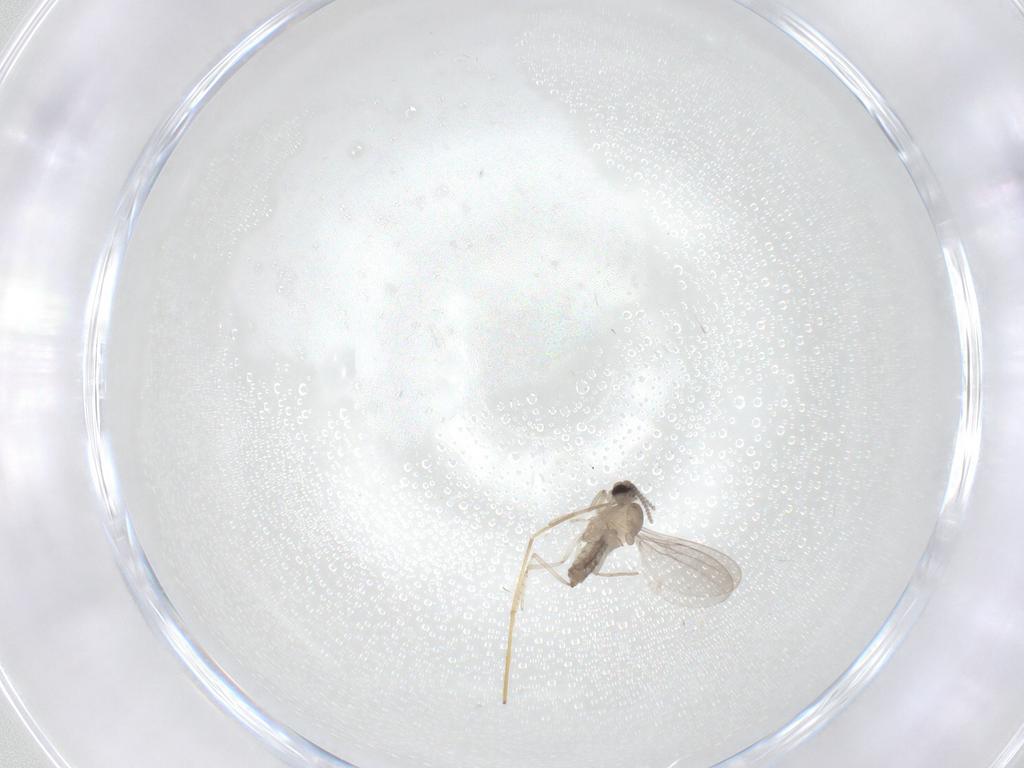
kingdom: Animalia
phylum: Arthropoda
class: Insecta
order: Diptera
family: Cecidomyiidae
